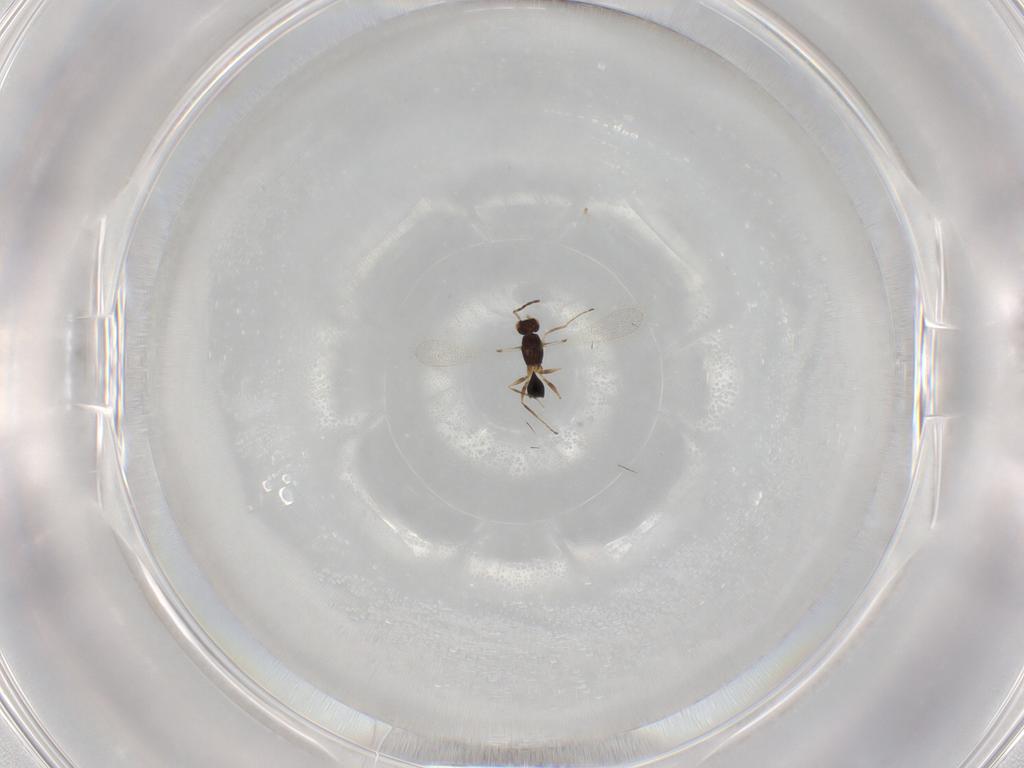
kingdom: Animalia
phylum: Arthropoda
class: Insecta
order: Hymenoptera
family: Mymaridae
